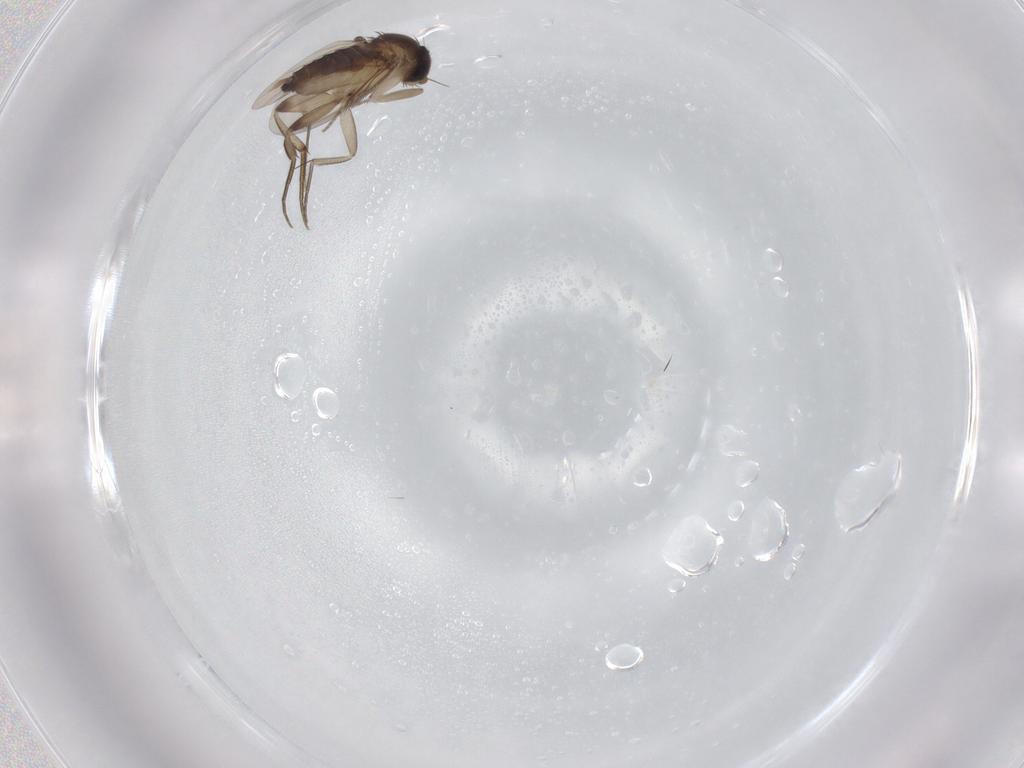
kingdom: Animalia
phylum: Arthropoda
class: Insecta
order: Diptera
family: Phoridae
